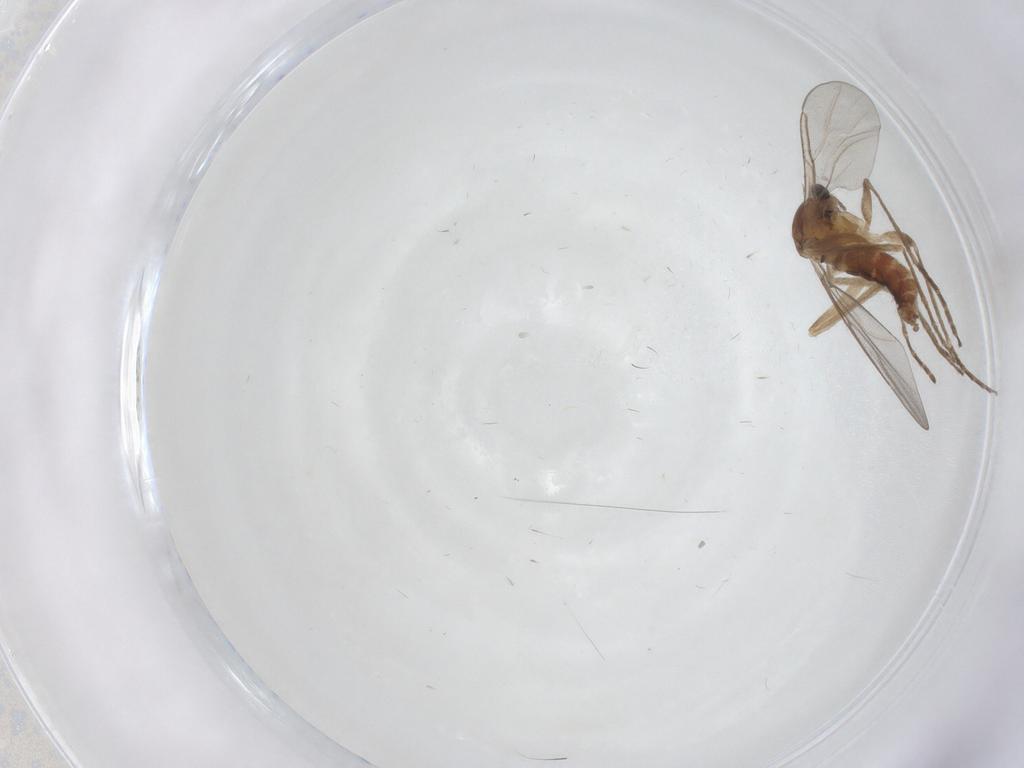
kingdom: Animalia
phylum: Arthropoda
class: Insecta
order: Diptera
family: Cecidomyiidae
